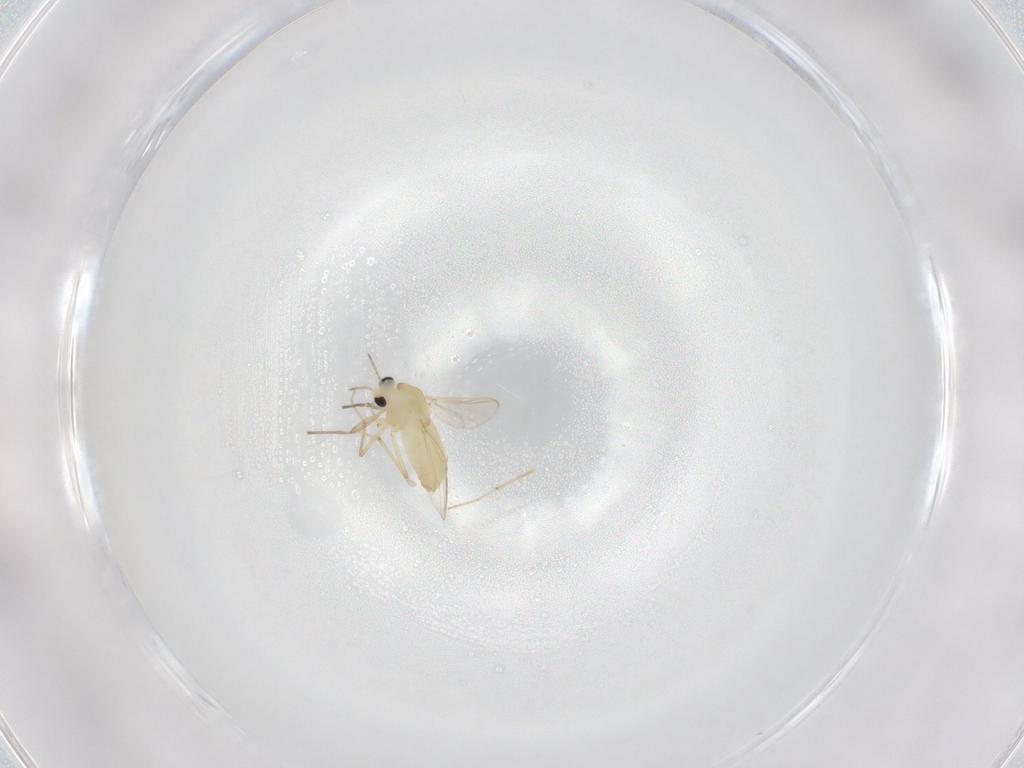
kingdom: Animalia
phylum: Arthropoda
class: Insecta
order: Diptera
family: Chironomidae
